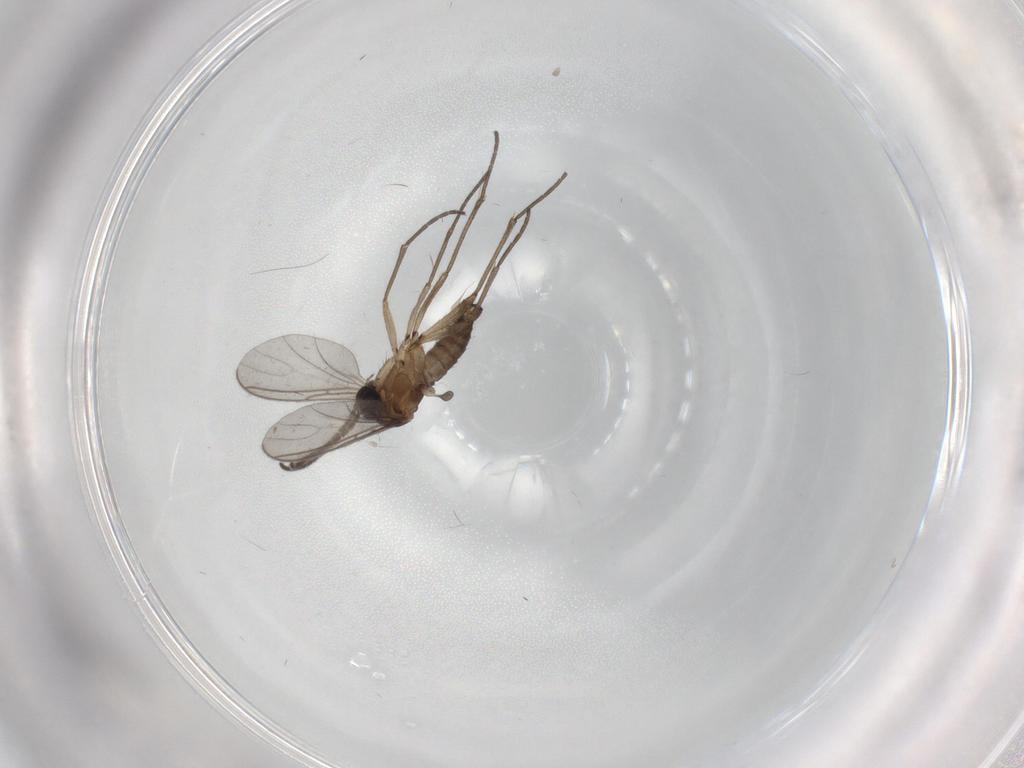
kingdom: Animalia
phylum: Arthropoda
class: Insecta
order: Diptera
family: Sciaridae
